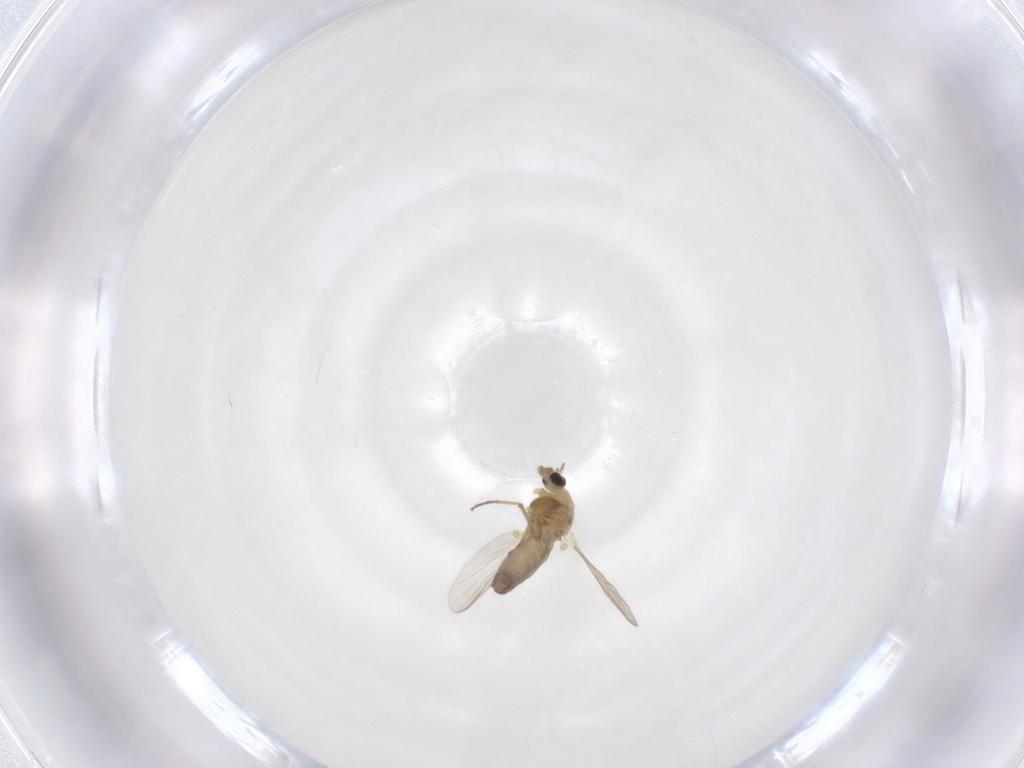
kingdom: Animalia
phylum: Arthropoda
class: Insecta
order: Diptera
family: Chironomidae
